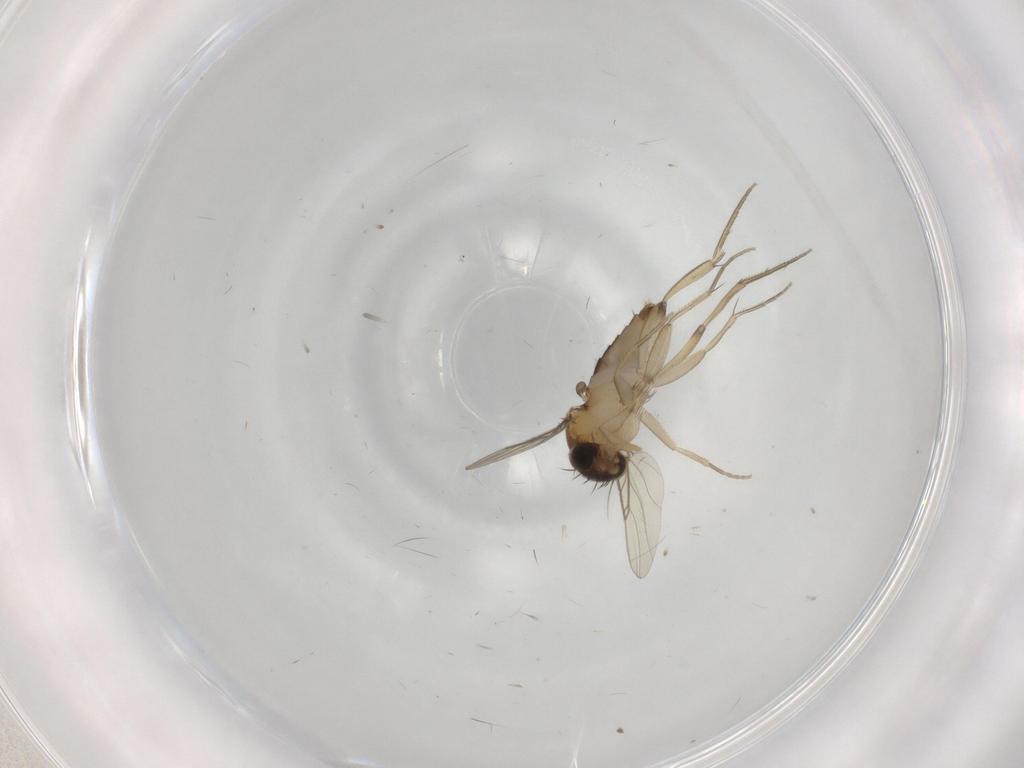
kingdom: Animalia
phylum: Arthropoda
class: Insecta
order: Diptera
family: Phoridae
